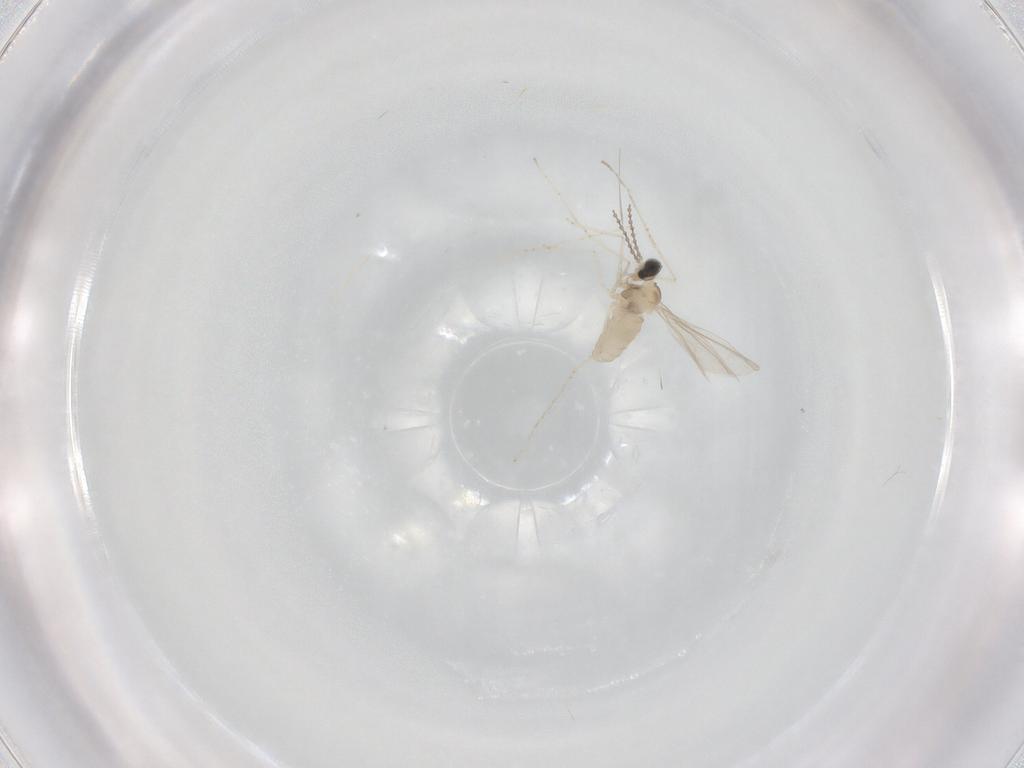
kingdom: Animalia
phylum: Arthropoda
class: Insecta
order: Diptera
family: Cecidomyiidae
